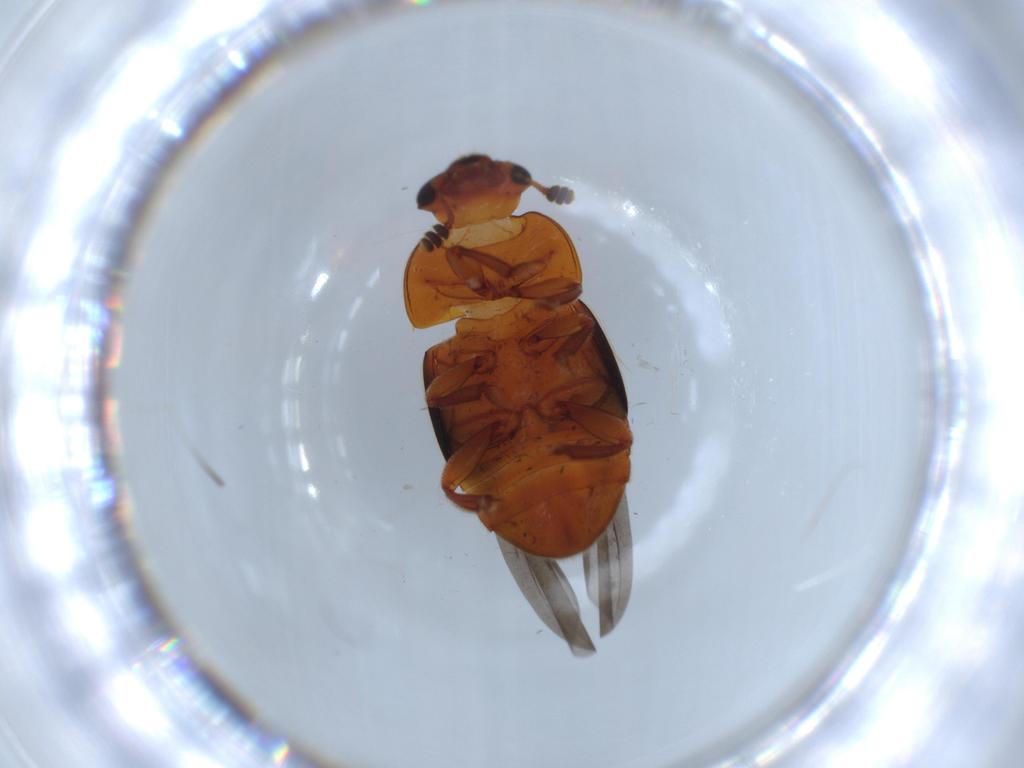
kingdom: Animalia
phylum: Arthropoda
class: Insecta
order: Coleoptera
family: Nitidulidae
